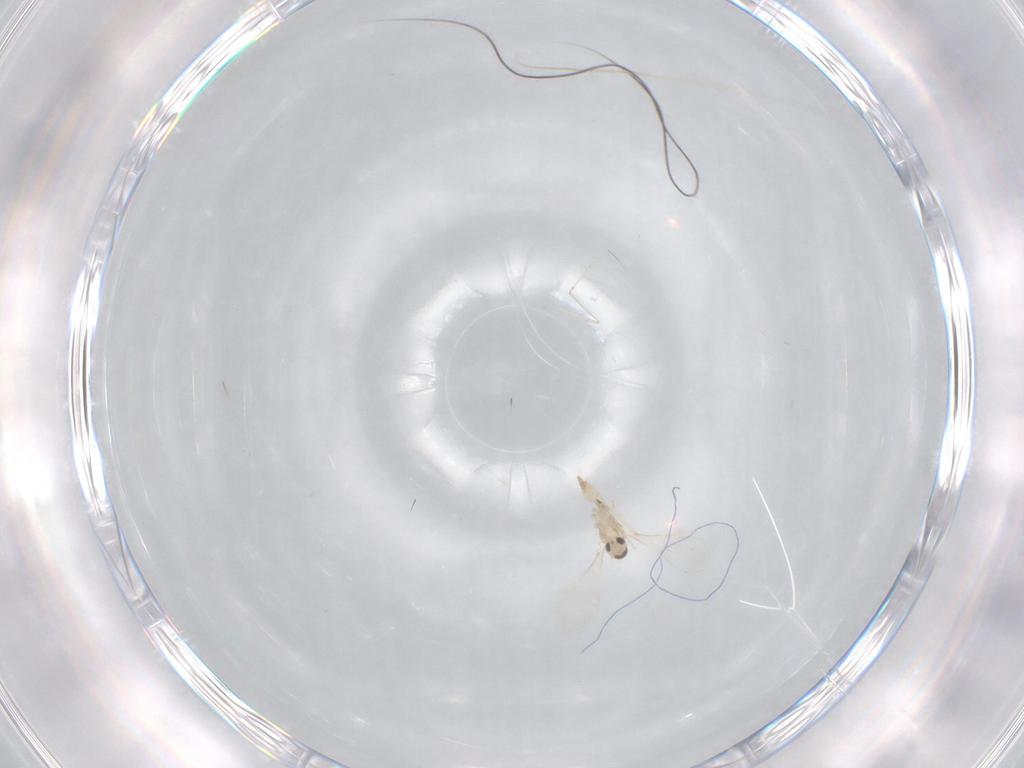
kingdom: Animalia
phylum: Arthropoda
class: Insecta
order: Diptera
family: Cecidomyiidae
